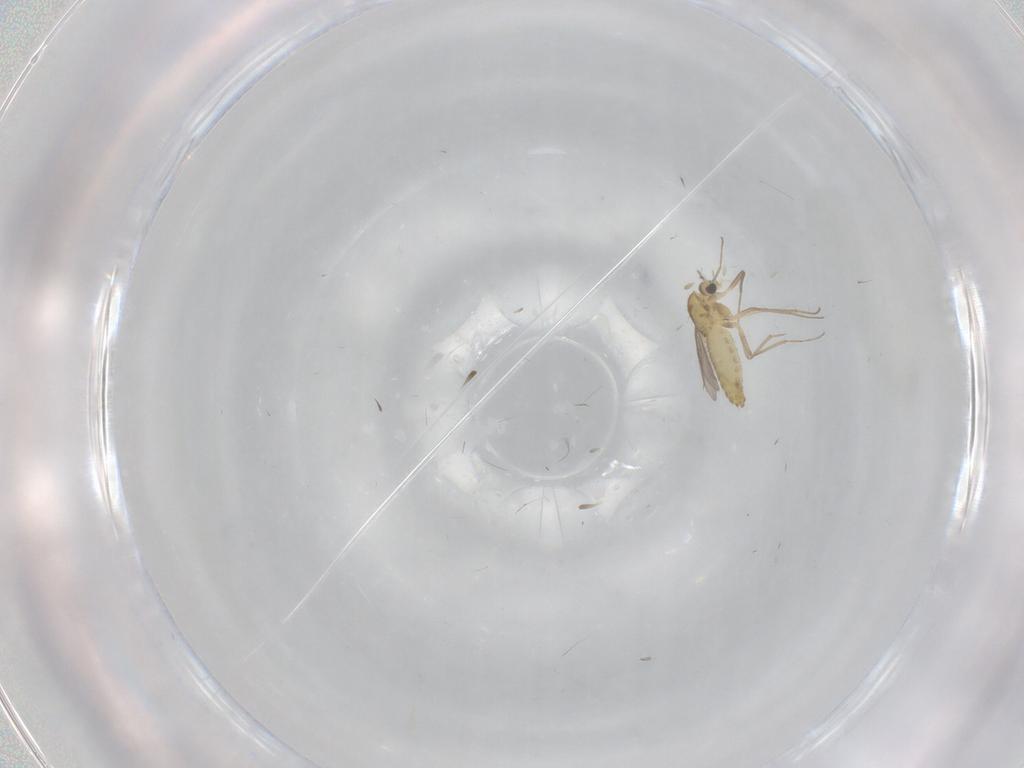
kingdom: Animalia
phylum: Arthropoda
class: Insecta
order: Diptera
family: Chironomidae
